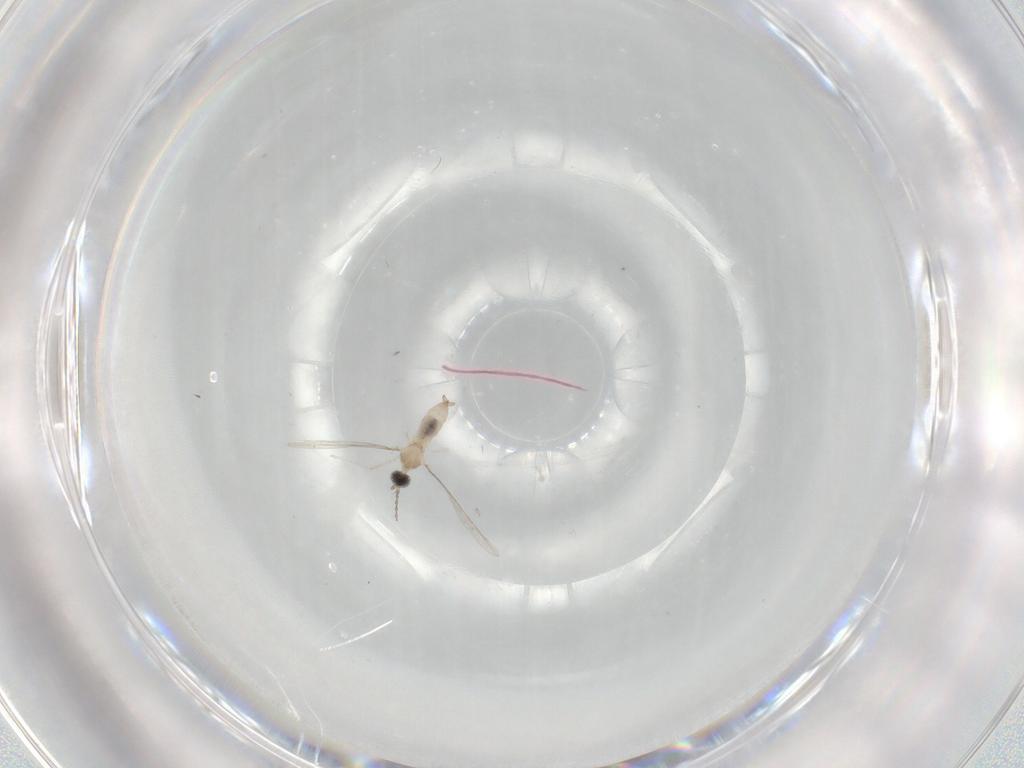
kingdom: Animalia
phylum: Arthropoda
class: Insecta
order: Diptera
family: Cecidomyiidae
